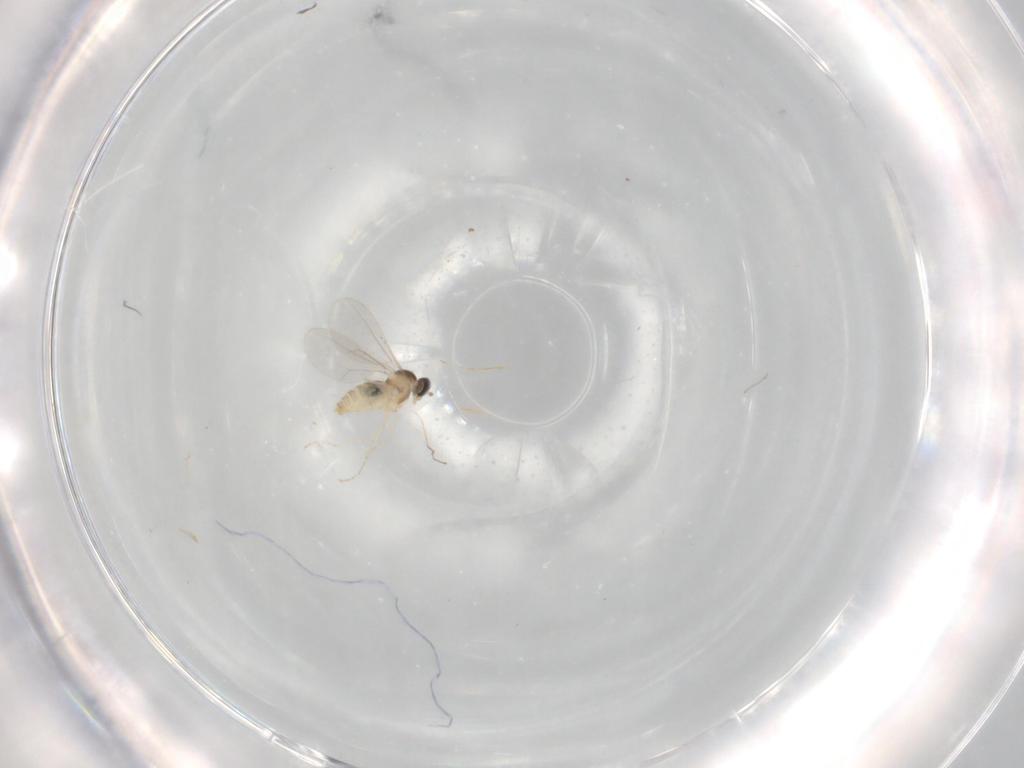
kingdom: Animalia
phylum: Arthropoda
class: Insecta
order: Diptera
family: Cecidomyiidae
